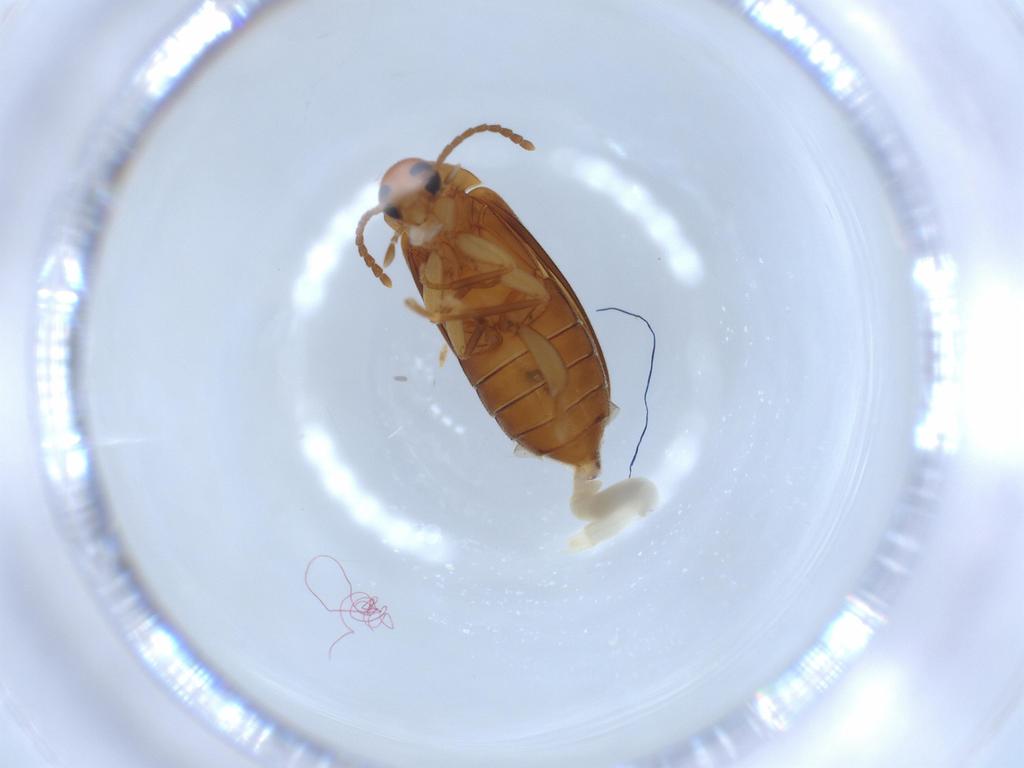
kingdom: Animalia
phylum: Arthropoda
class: Insecta
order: Coleoptera
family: Scraptiidae
